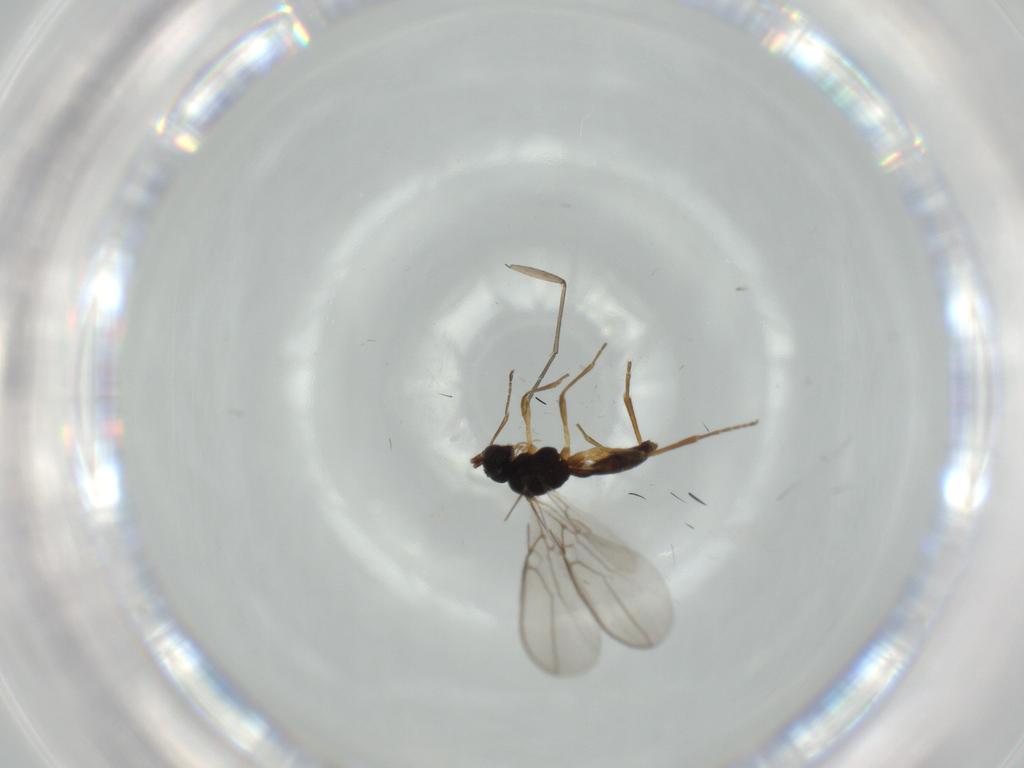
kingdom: Animalia
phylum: Arthropoda
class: Insecta
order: Hymenoptera
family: Braconidae
